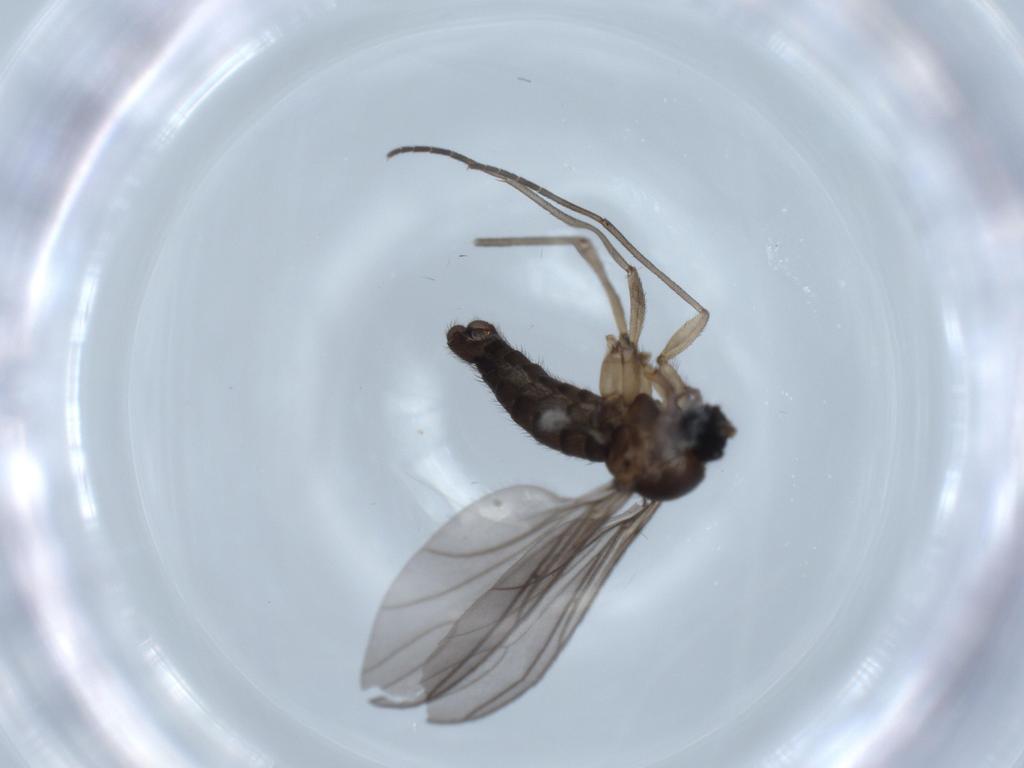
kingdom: Animalia
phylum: Arthropoda
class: Insecta
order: Diptera
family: Sciaridae
